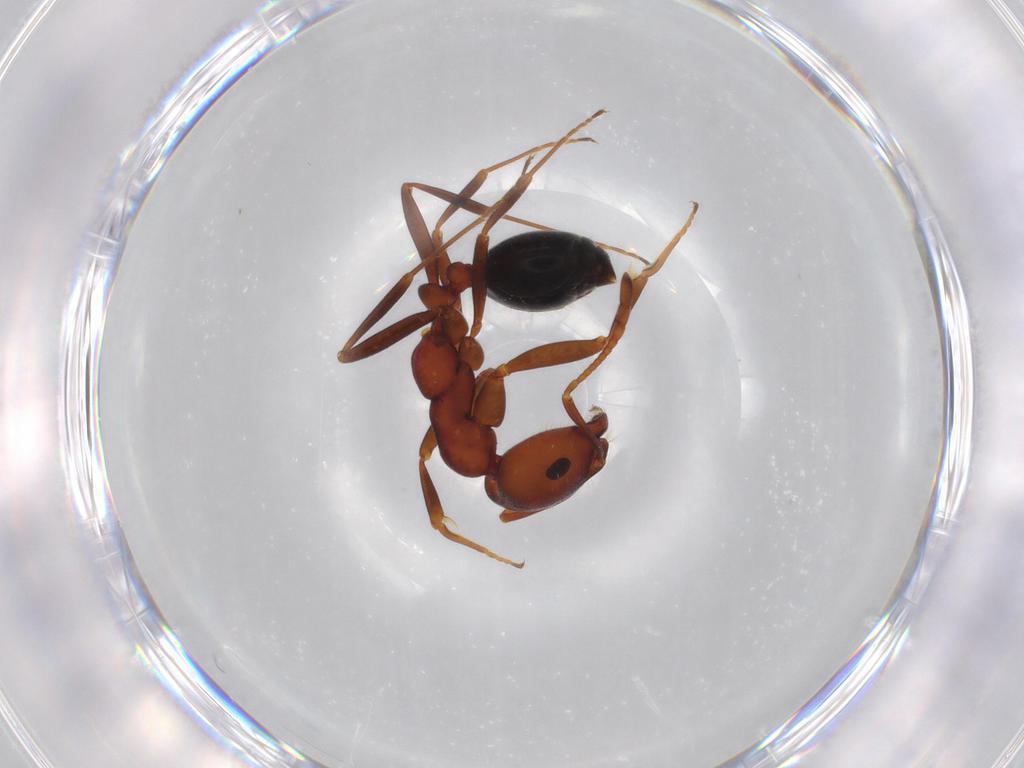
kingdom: Animalia
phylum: Arthropoda
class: Insecta
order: Hymenoptera
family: Formicidae
